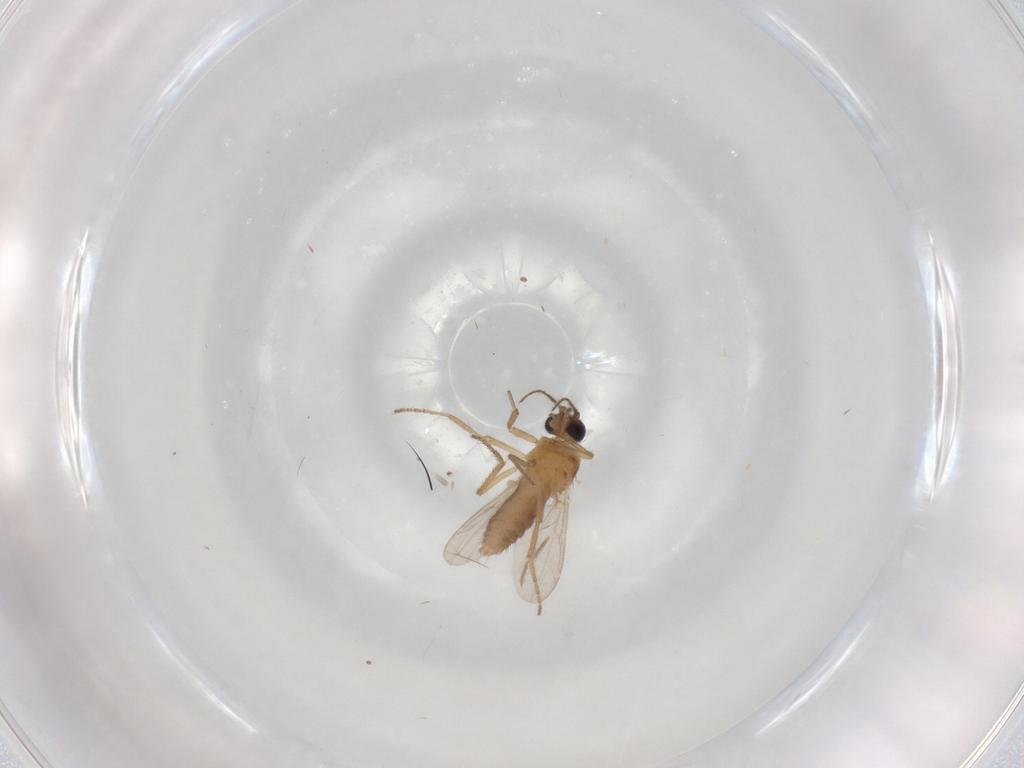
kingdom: Animalia
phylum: Arthropoda
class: Insecta
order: Diptera
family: Ceratopogonidae
